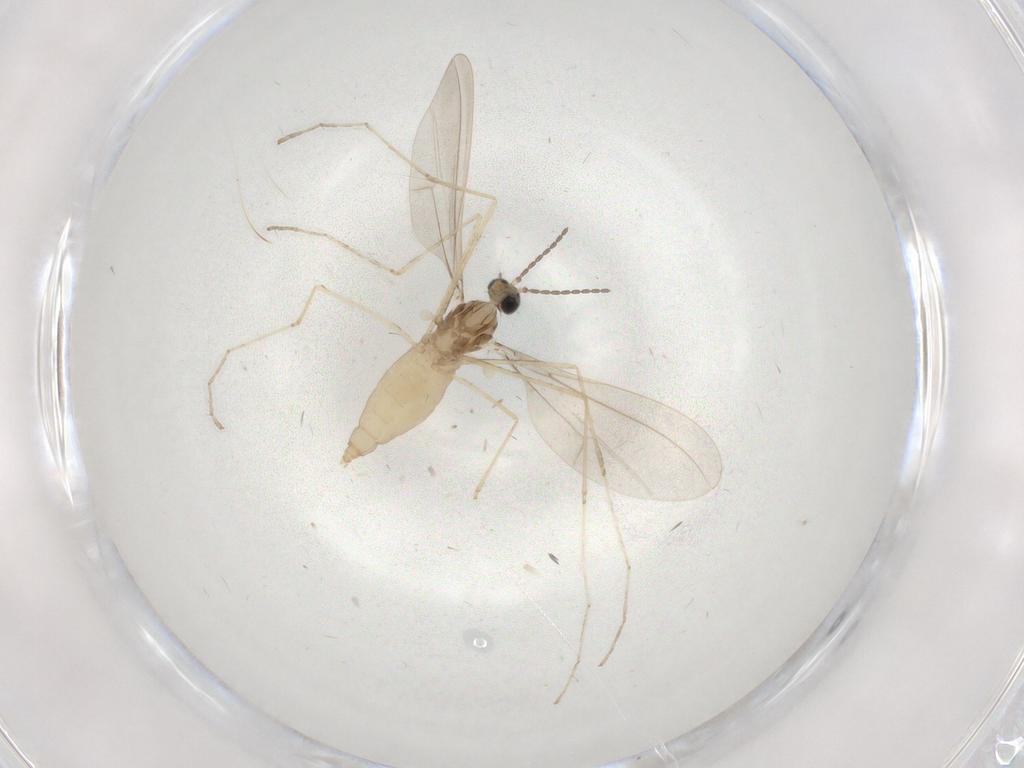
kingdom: Animalia
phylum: Arthropoda
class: Insecta
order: Diptera
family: Cecidomyiidae
